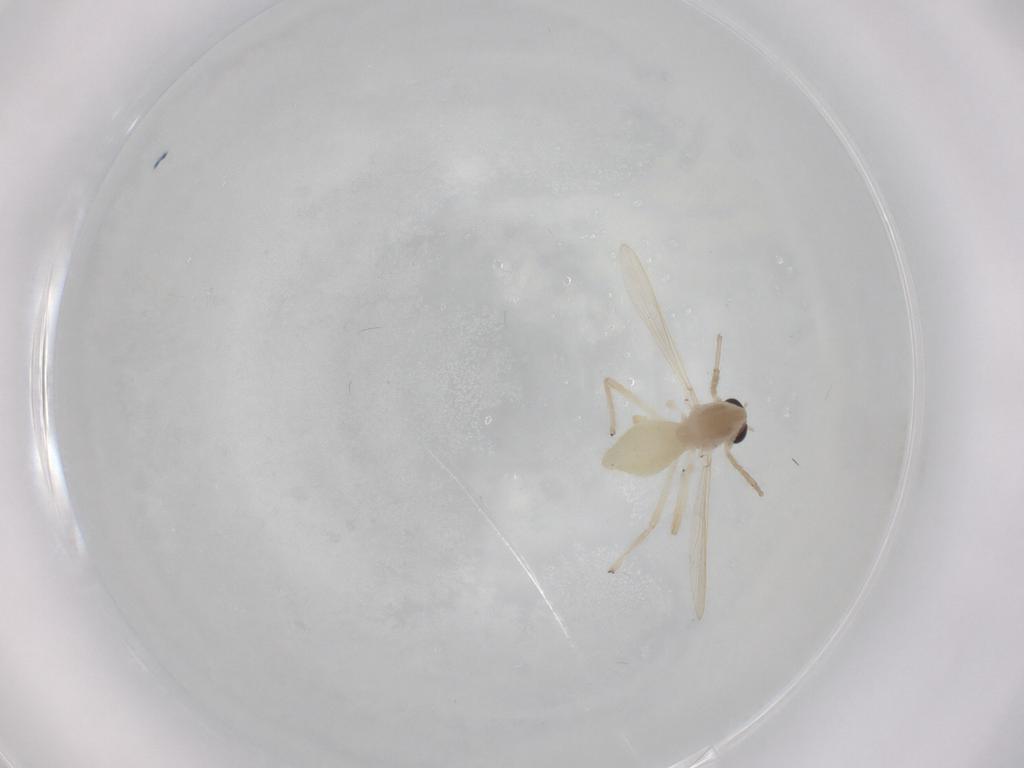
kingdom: Animalia
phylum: Arthropoda
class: Insecta
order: Diptera
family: Chironomidae
